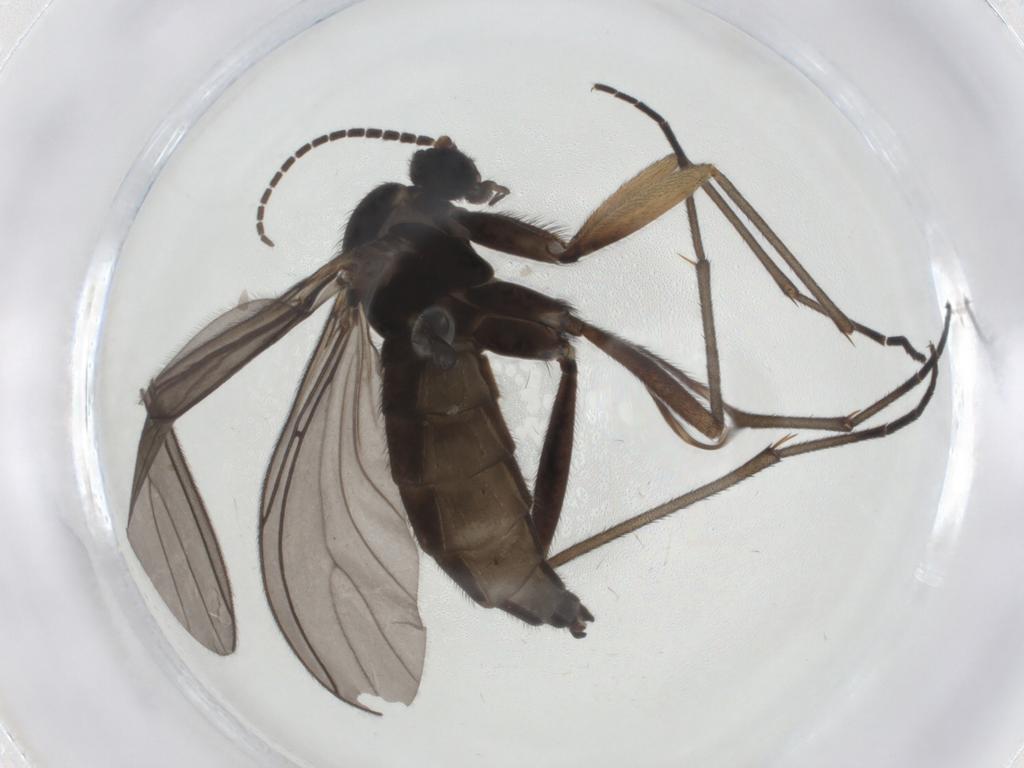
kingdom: Animalia
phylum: Arthropoda
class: Insecta
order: Diptera
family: Sciaridae
